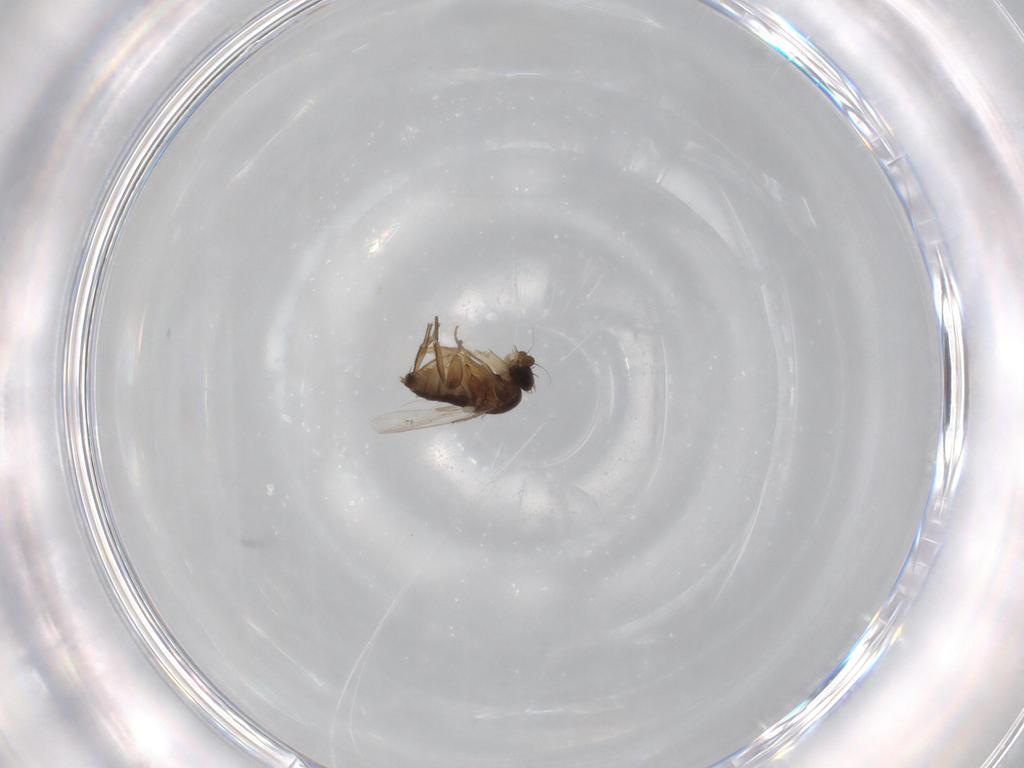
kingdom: Animalia
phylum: Arthropoda
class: Insecta
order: Diptera
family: Phoridae
